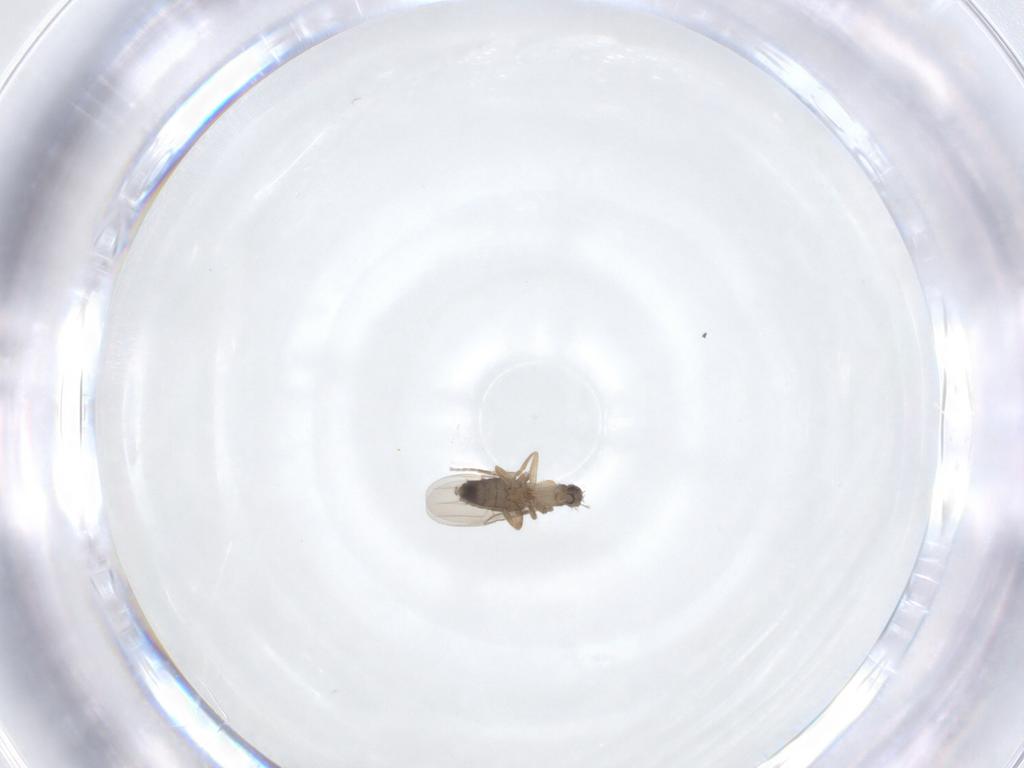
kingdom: Animalia
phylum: Arthropoda
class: Insecta
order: Diptera
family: Phoridae
